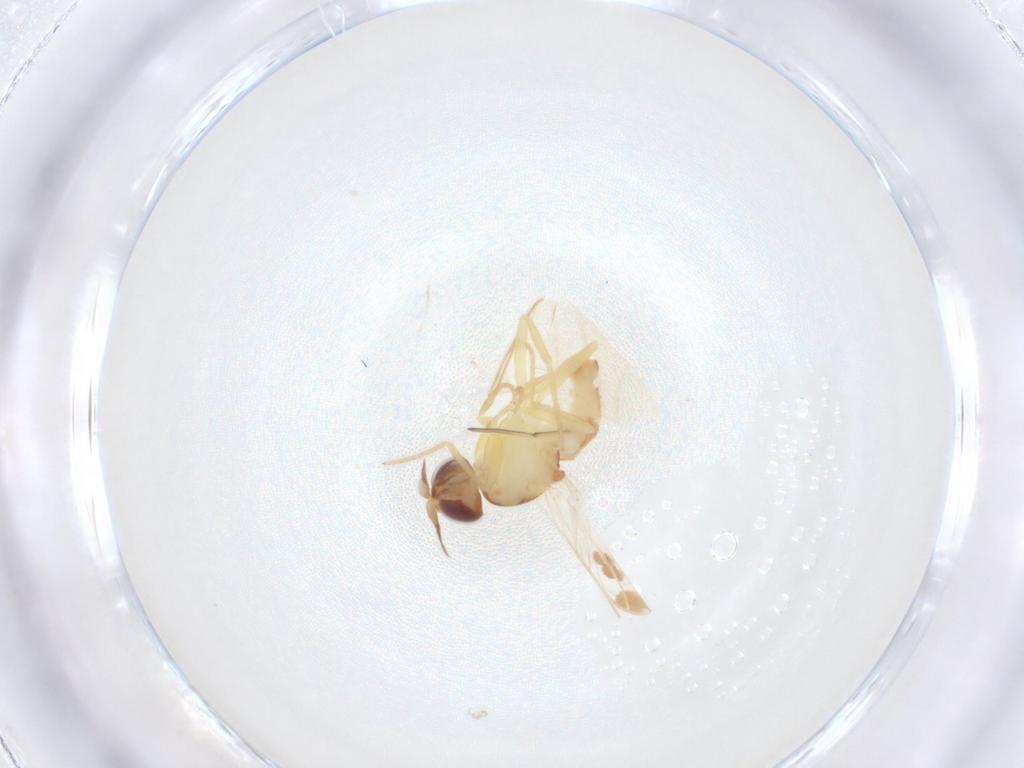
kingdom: Animalia
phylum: Arthropoda
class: Insecta
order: Diptera
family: Chloropidae
